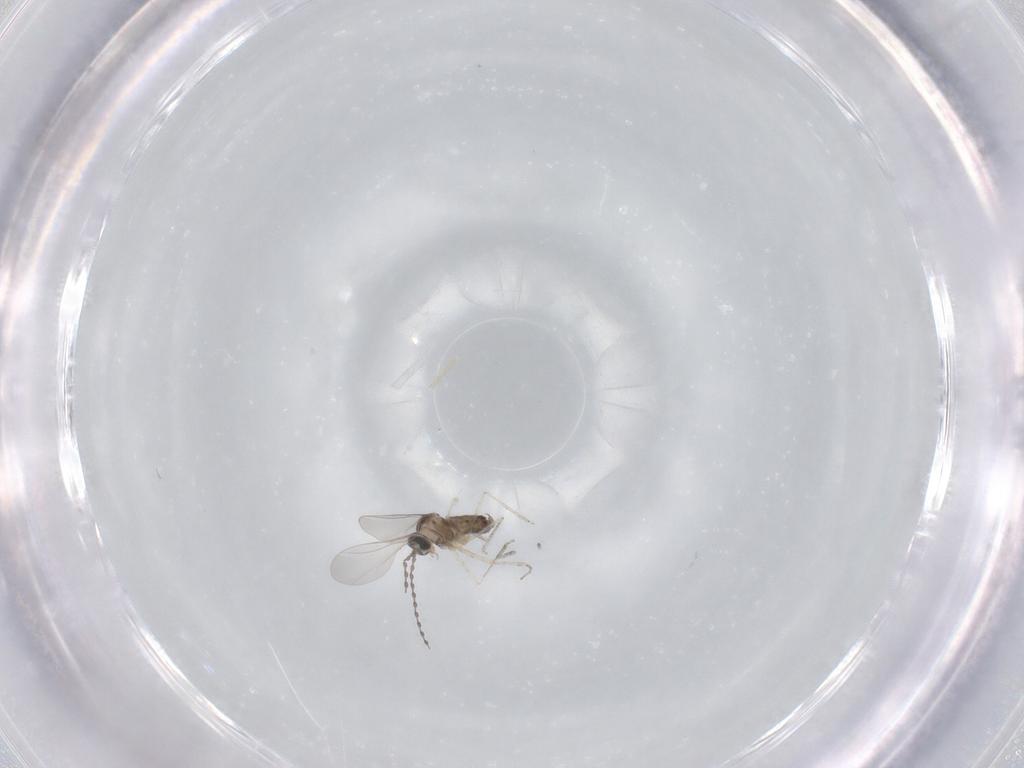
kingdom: Animalia
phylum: Arthropoda
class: Insecta
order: Diptera
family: Cecidomyiidae
